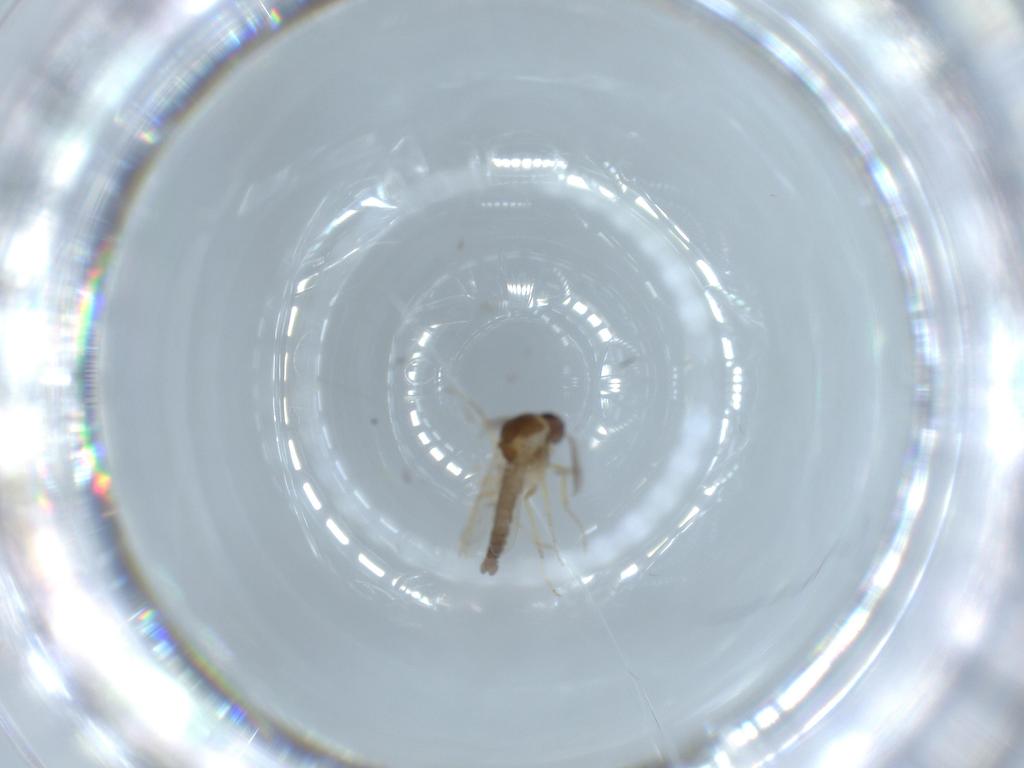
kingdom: Animalia
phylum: Arthropoda
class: Insecta
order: Diptera
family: Ceratopogonidae
